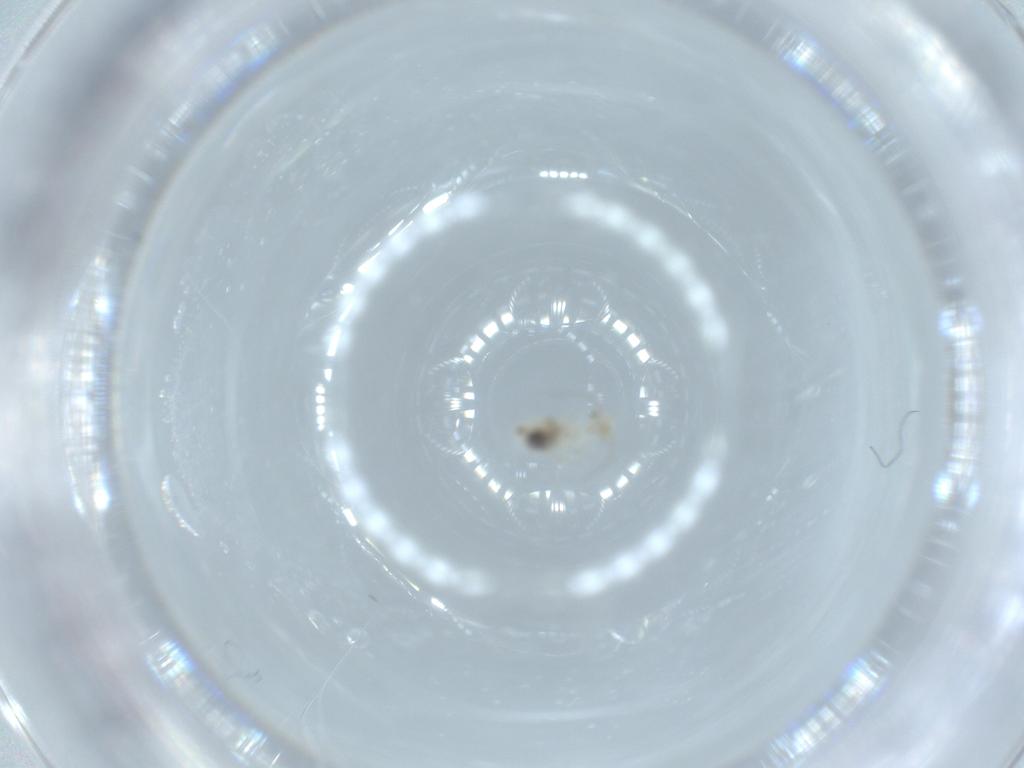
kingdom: Animalia
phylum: Arthropoda
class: Insecta
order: Psocodea
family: Caeciliusidae
